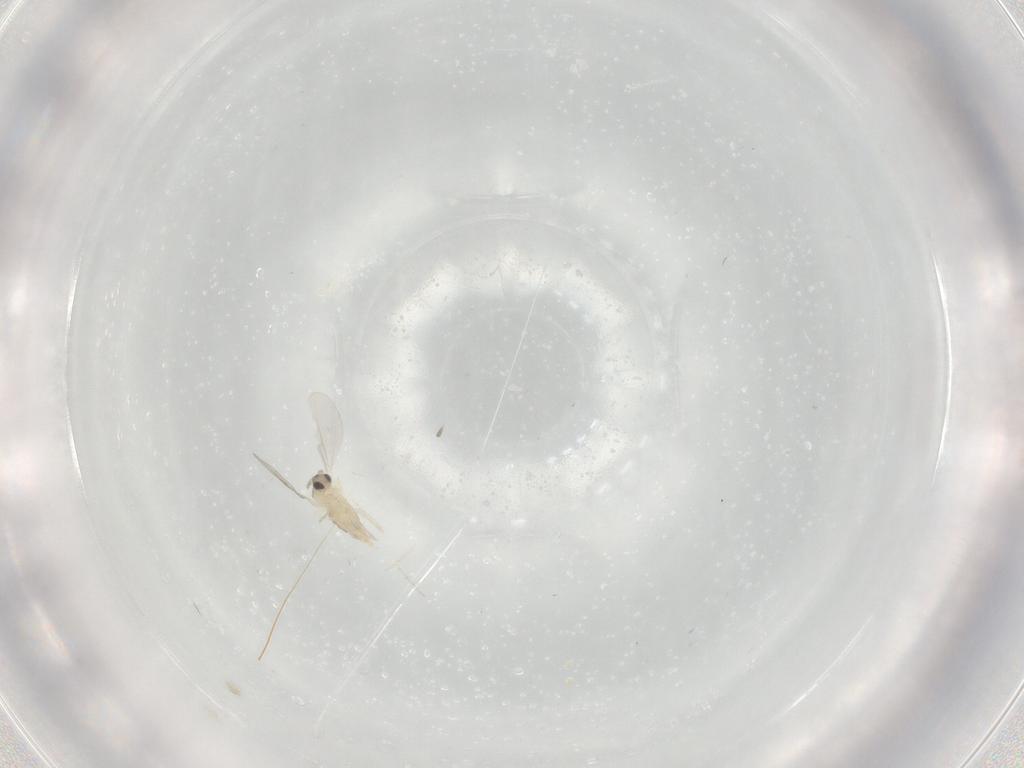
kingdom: Animalia
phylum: Arthropoda
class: Insecta
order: Diptera
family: Cecidomyiidae
